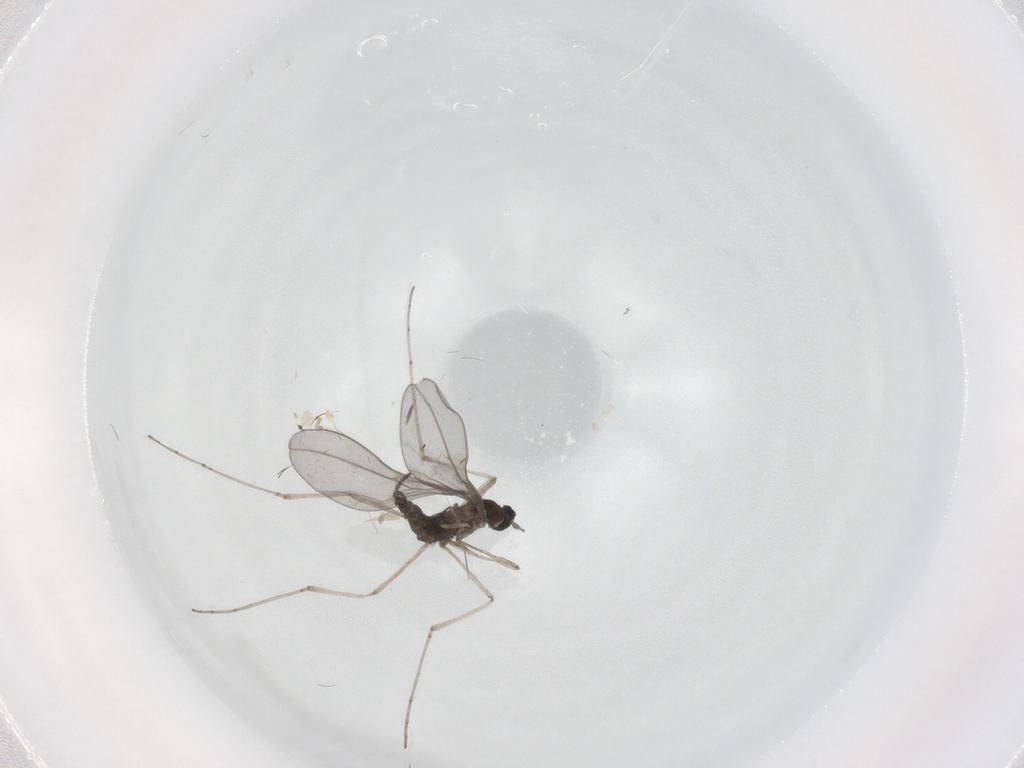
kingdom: Animalia
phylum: Arthropoda
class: Insecta
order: Diptera
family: Cecidomyiidae
